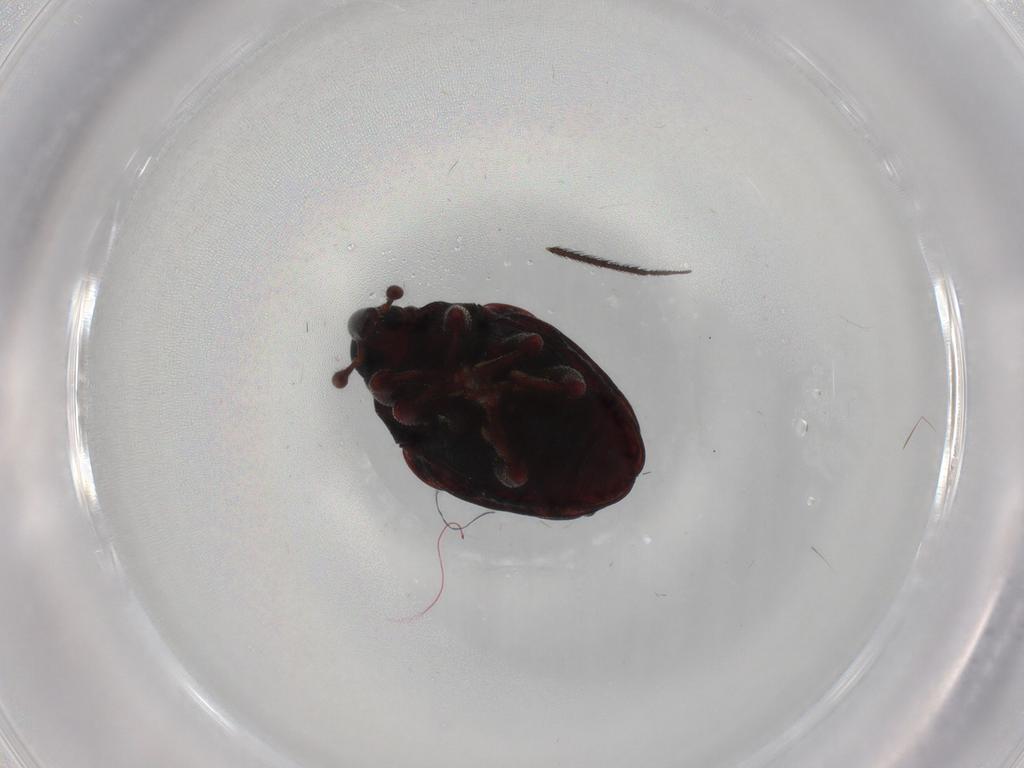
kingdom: Animalia
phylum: Arthropoda
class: Insecta
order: Coleoptera
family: Curculionidae
